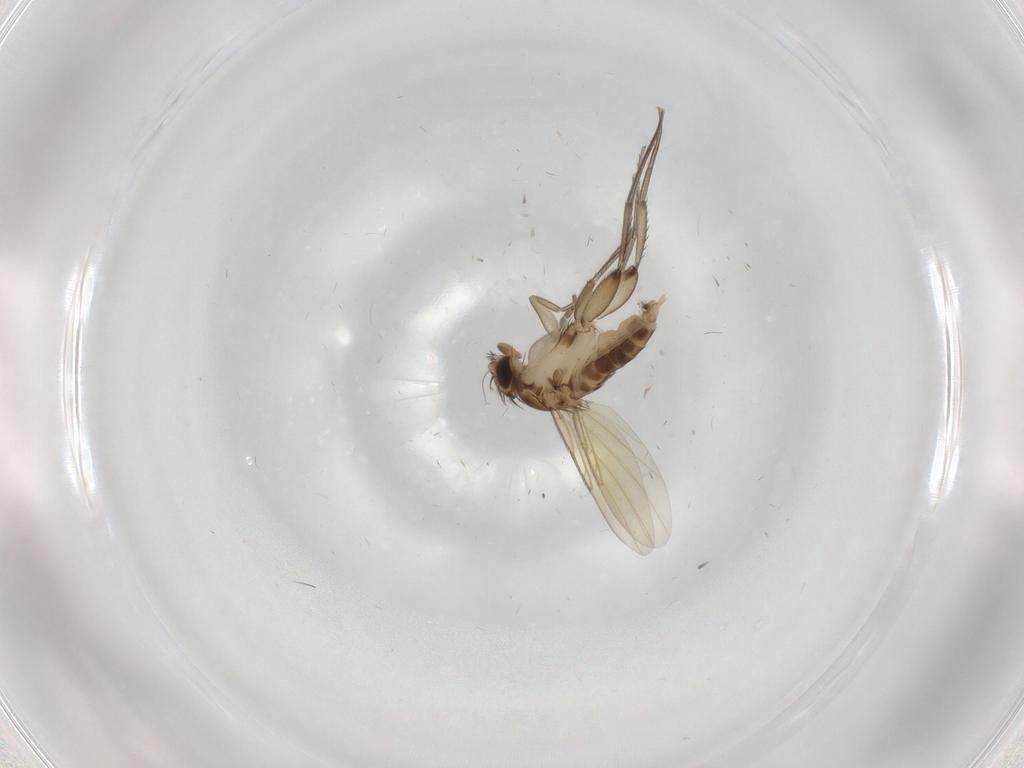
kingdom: Animalia
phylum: Arthropoda
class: Insecta
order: Diptera
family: Phoridae
